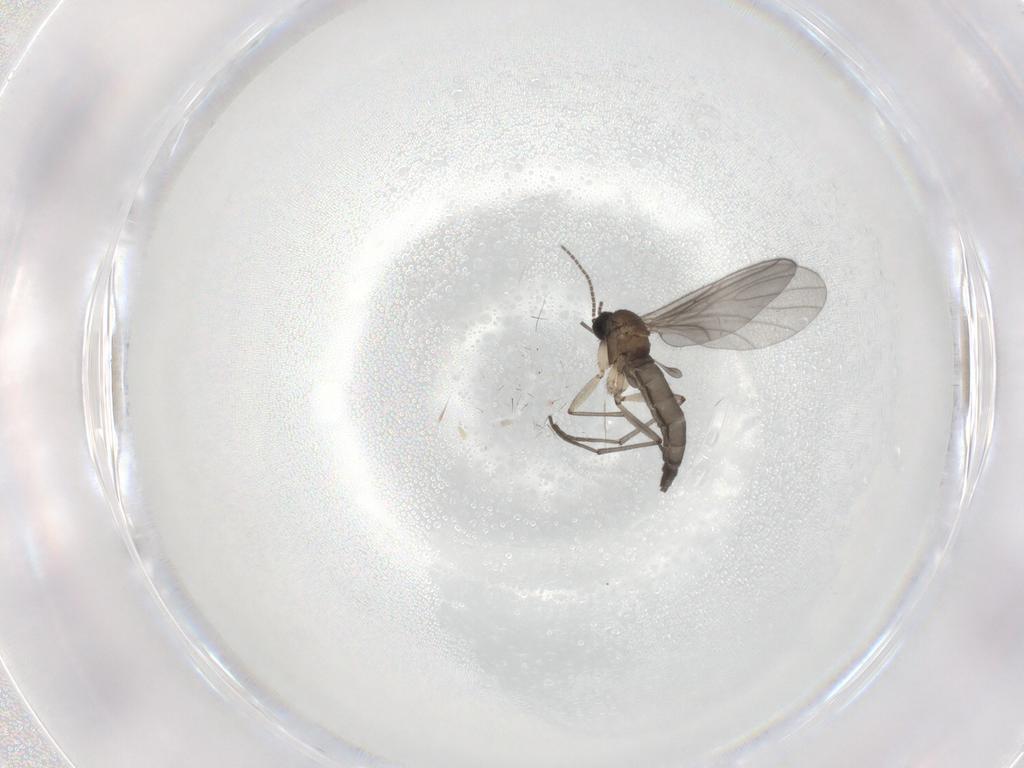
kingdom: Animalia
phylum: Arthropoda
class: Insecta
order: Diptera
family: Sciaridae
